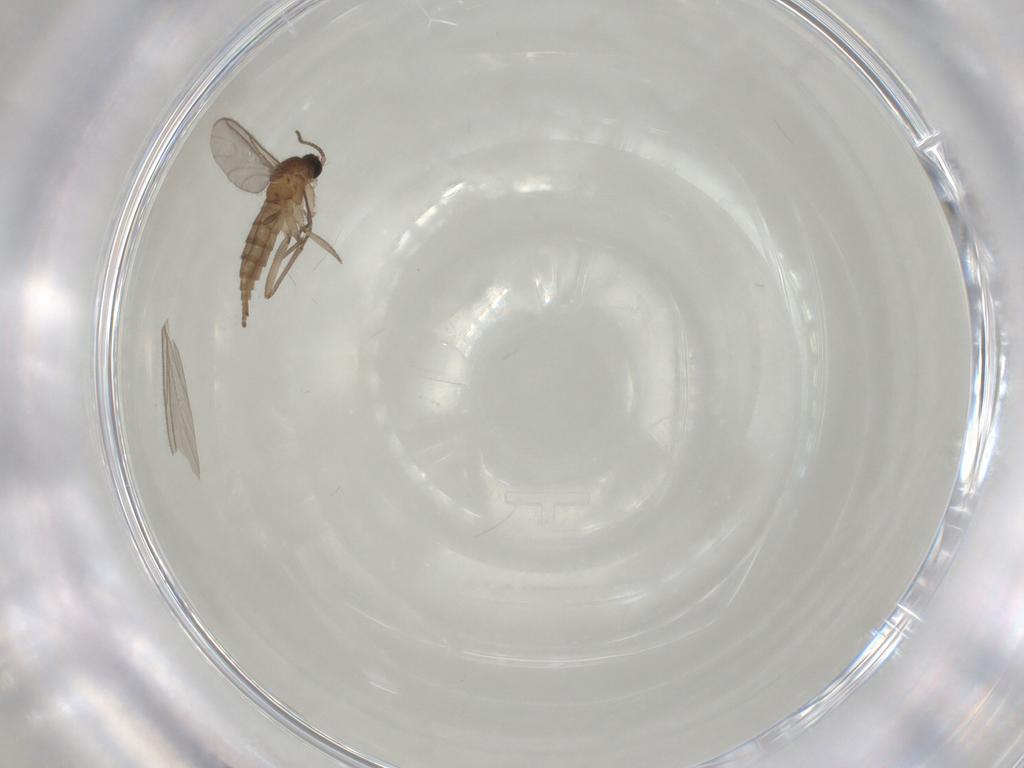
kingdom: Animalia
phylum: Arthropoda
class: Insecta
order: Diptera
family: Sciaridae
